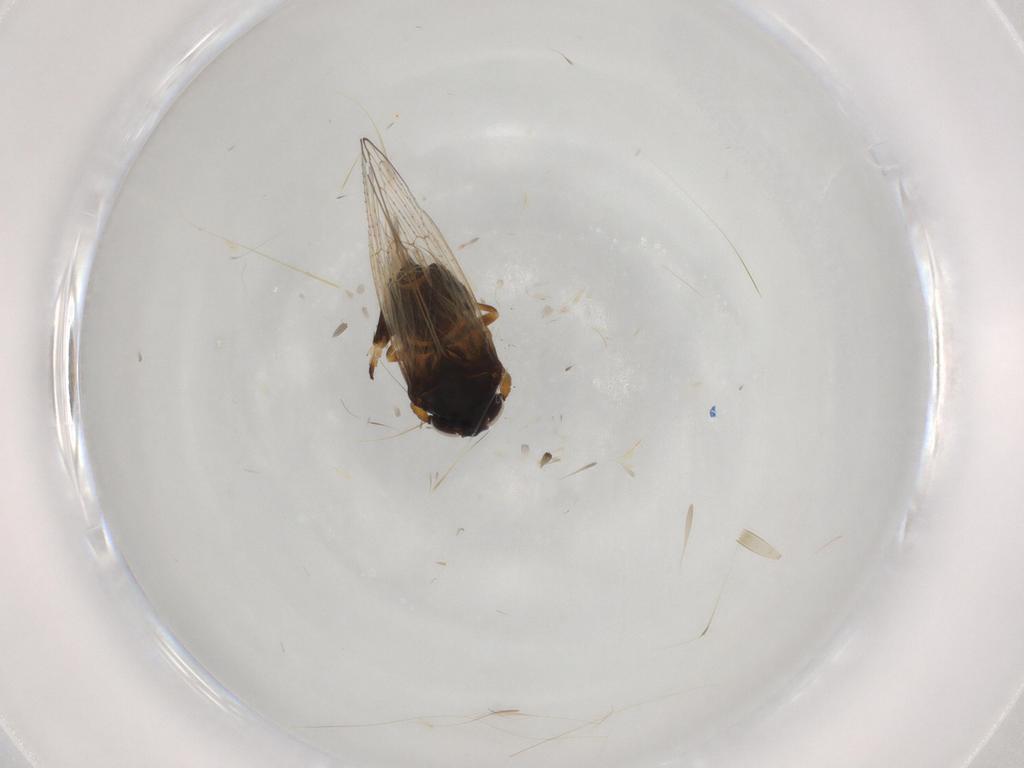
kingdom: Animalia
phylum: Arthropoda
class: Insecta
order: Hemiptera
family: Delphacidae
